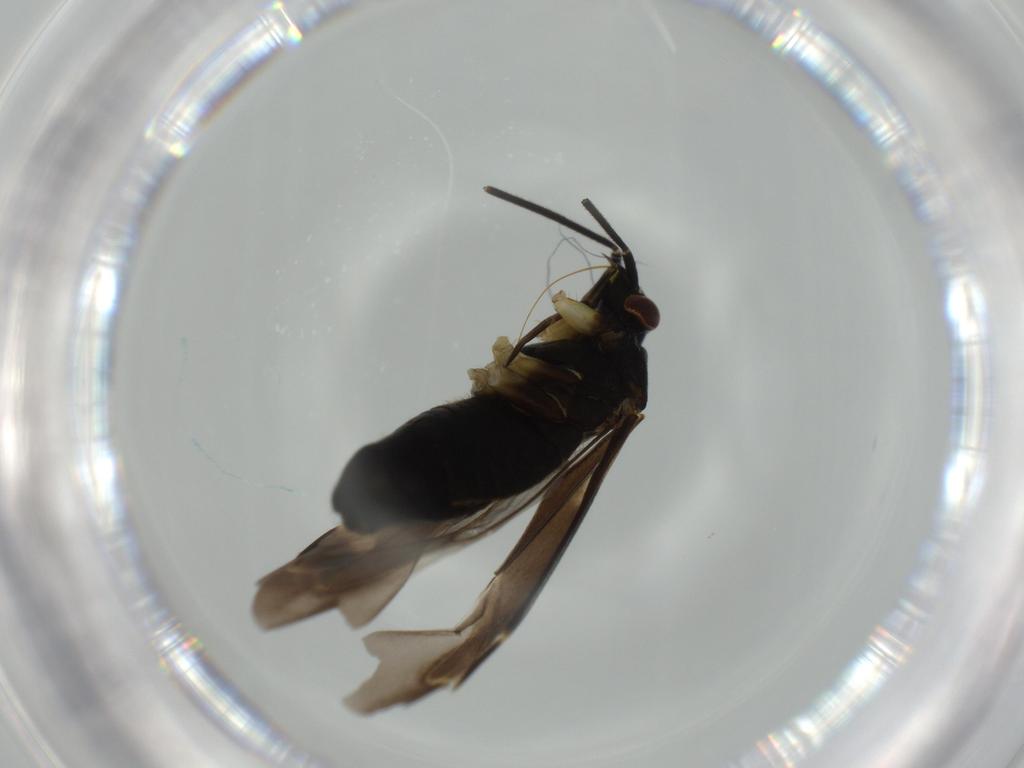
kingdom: Animalia
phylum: Arthropoda
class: Insecta
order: Hemiptera
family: Miridae
